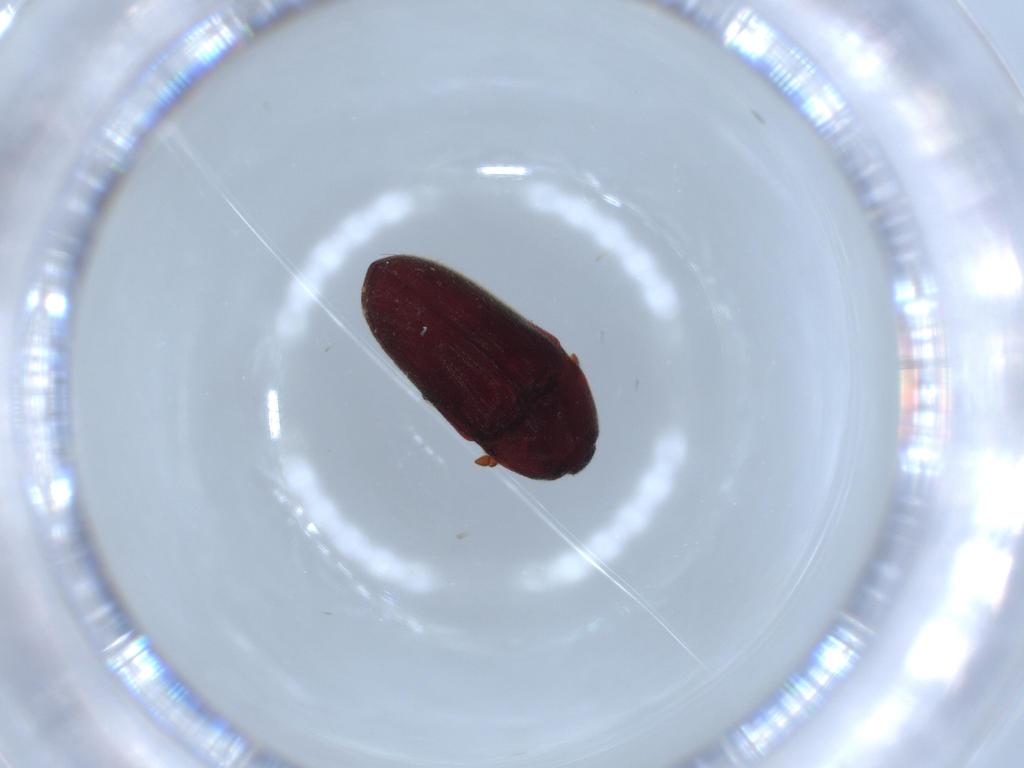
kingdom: Animalia
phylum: Arthropoda
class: Insecta
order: Coleoptera
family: Throscidae
